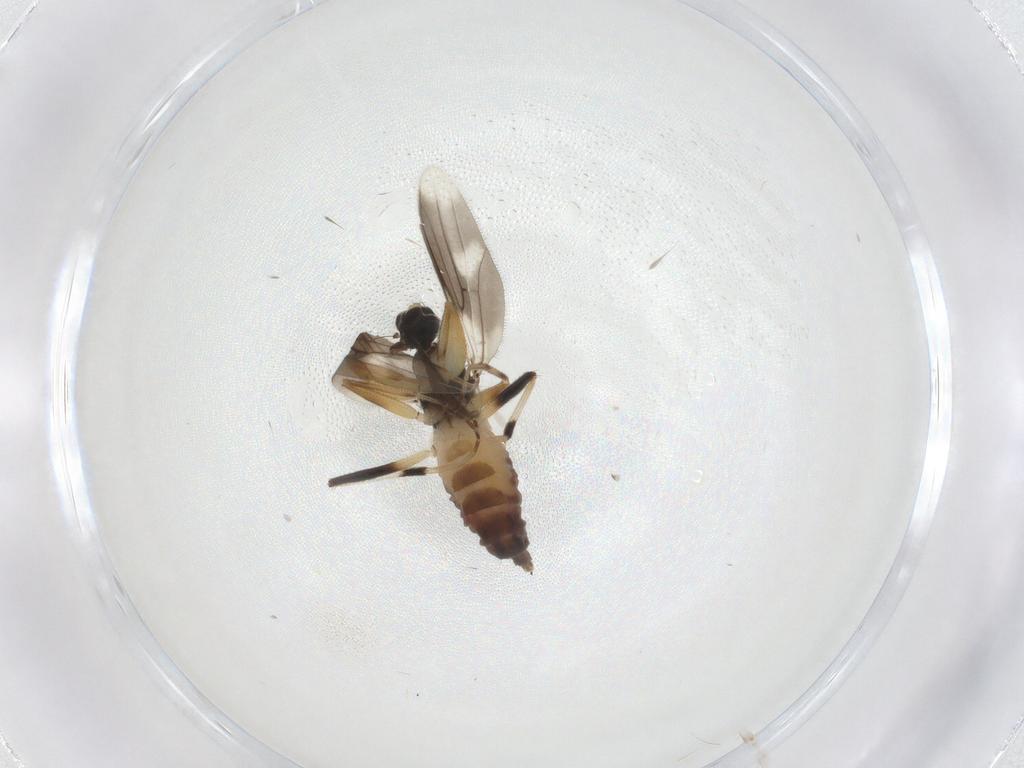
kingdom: Animalia
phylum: Arthropoda
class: Insecta
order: Diptera
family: Hybotidae
